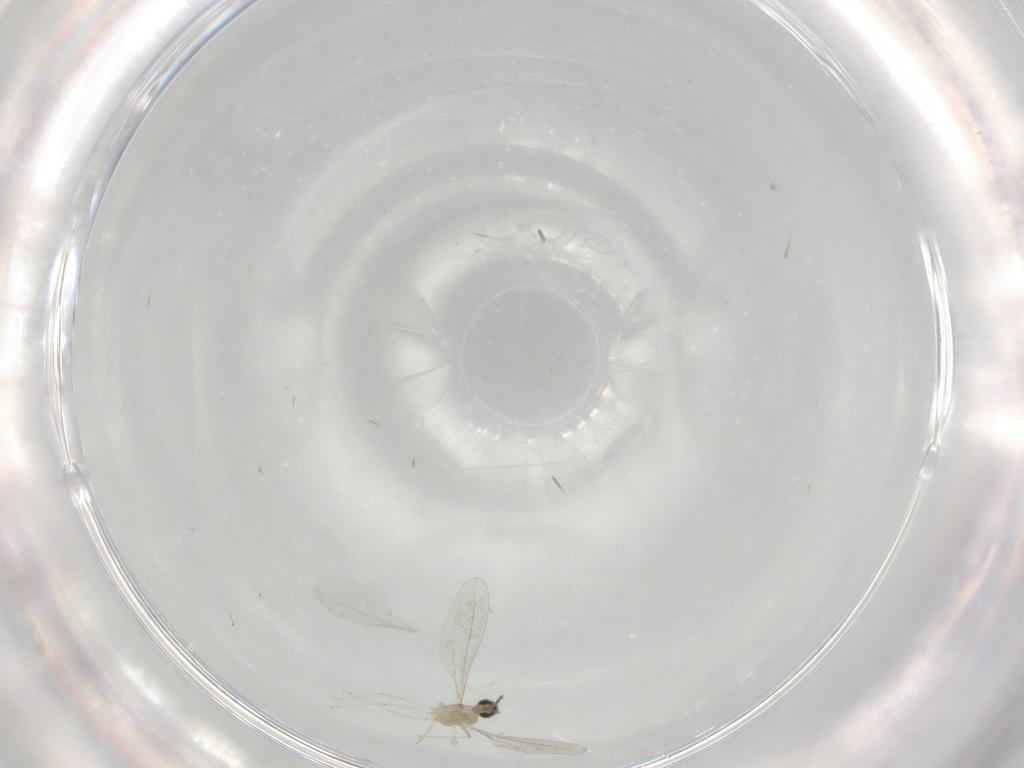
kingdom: Animalia
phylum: Arthropoda
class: Insecta
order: Diptera
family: Cecidomyiidae
